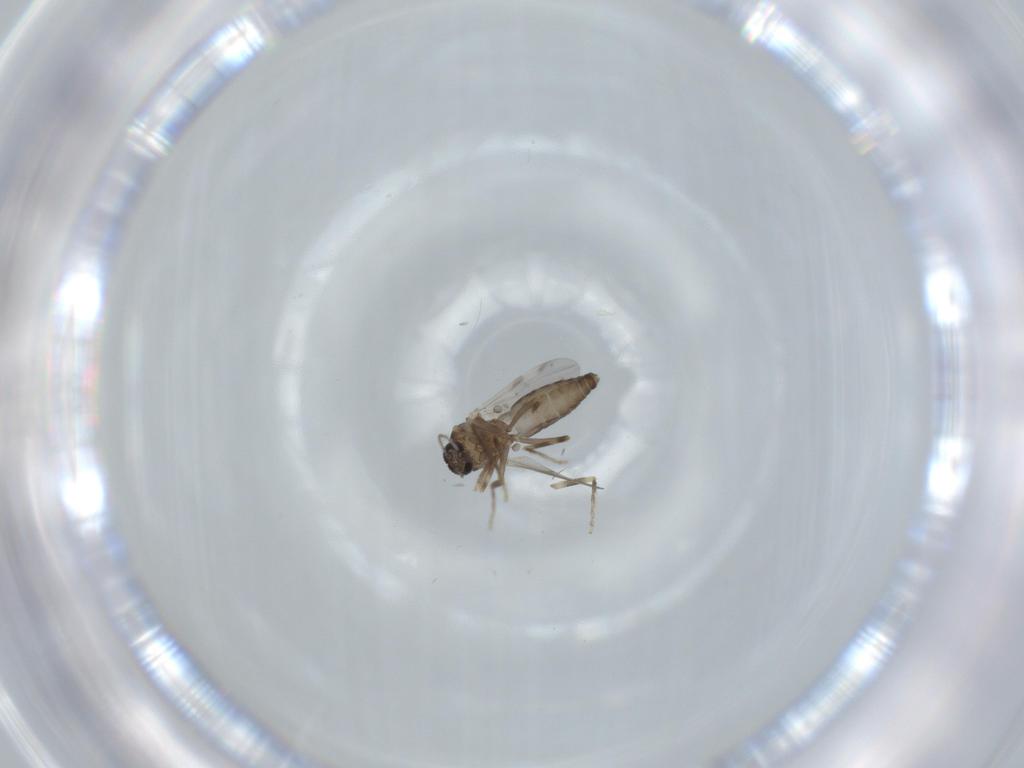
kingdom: Animalia
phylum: Arthropoda
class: Insecta
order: Diptera
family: Ceratopogonidae
